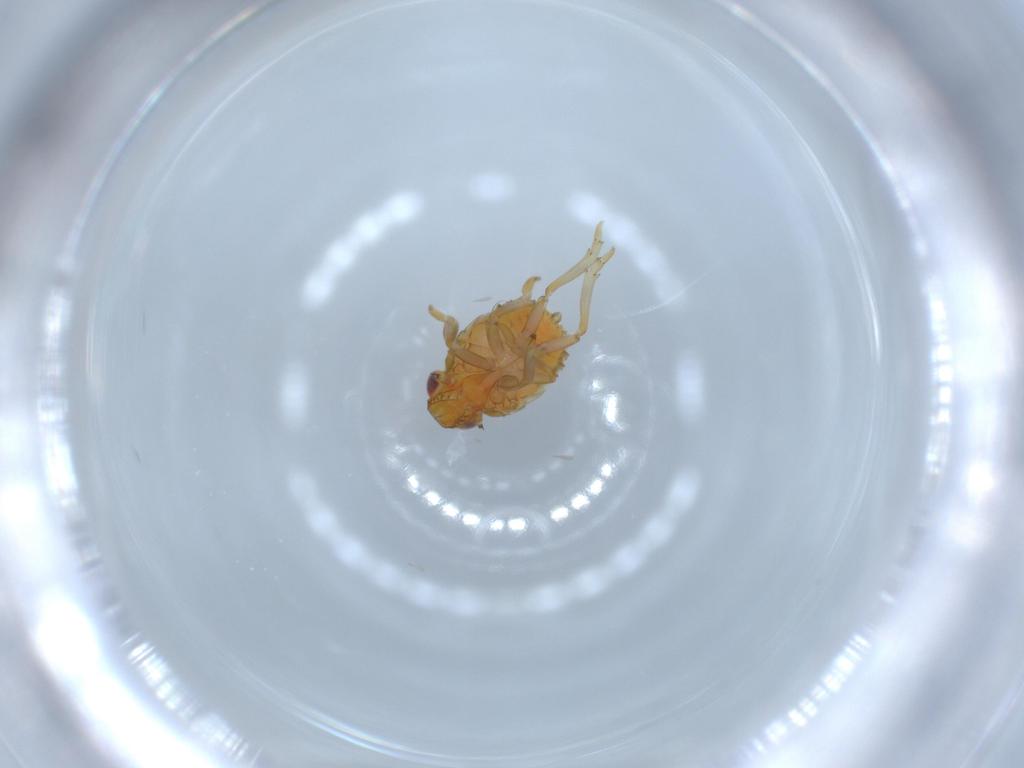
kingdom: Animalia
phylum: Arthropoda
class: Insecta
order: Hemiptera
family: Issidae
